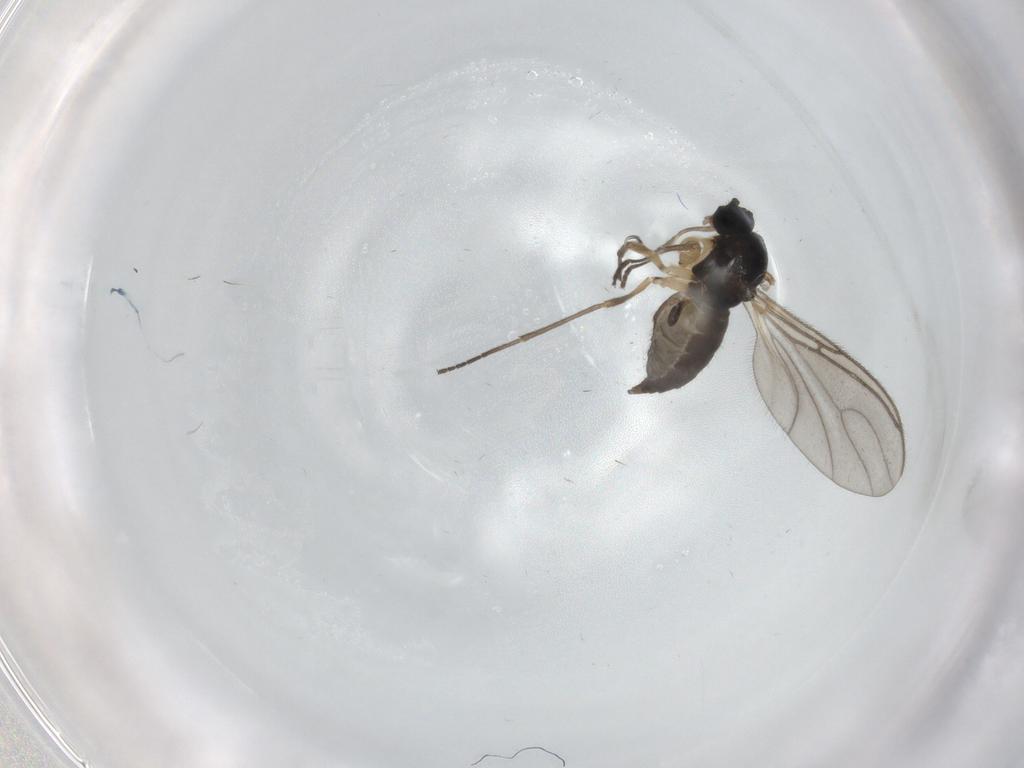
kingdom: Animalia
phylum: Arthropoda
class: Insecta
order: Diptera
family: Sciaridae
